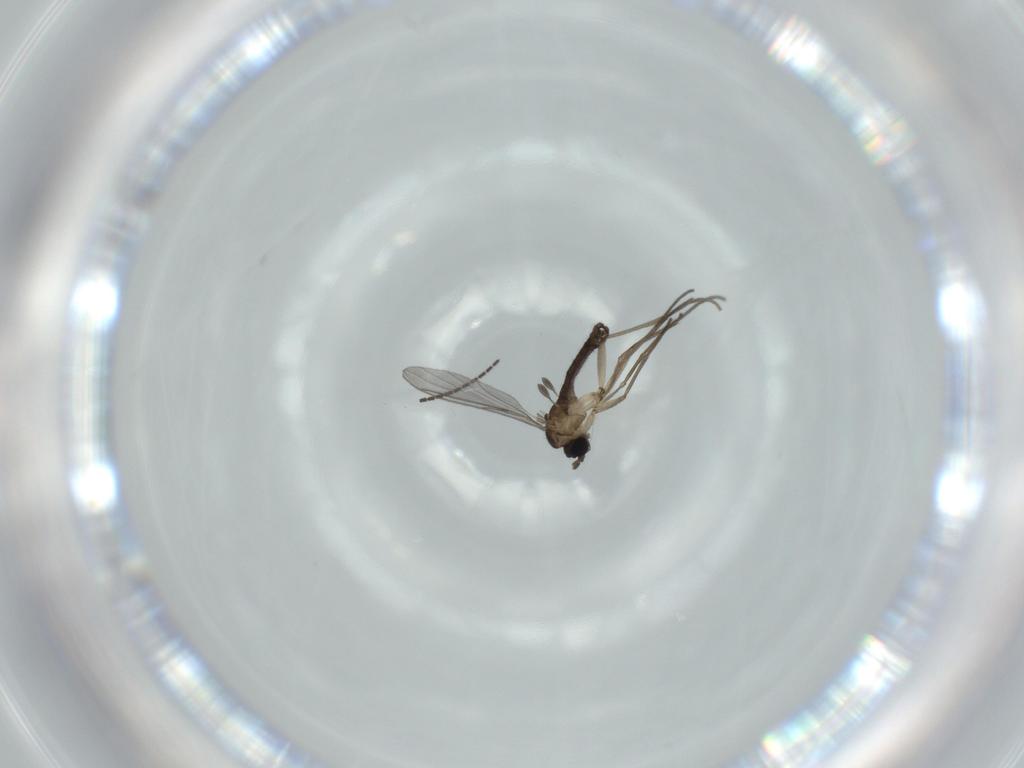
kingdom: Animalia
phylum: Arthropoda
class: Insecta
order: Diptera
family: Sciaridae
